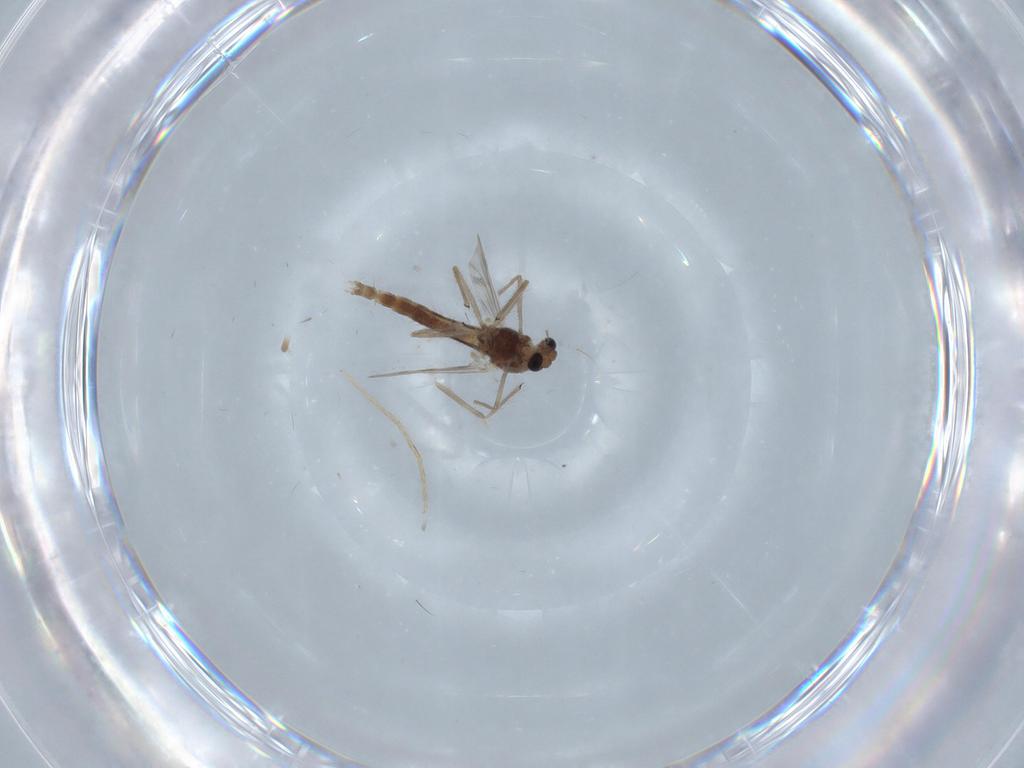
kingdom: Animalia
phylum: Arthropoda
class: Insecta
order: Diptera
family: Chironomidae
